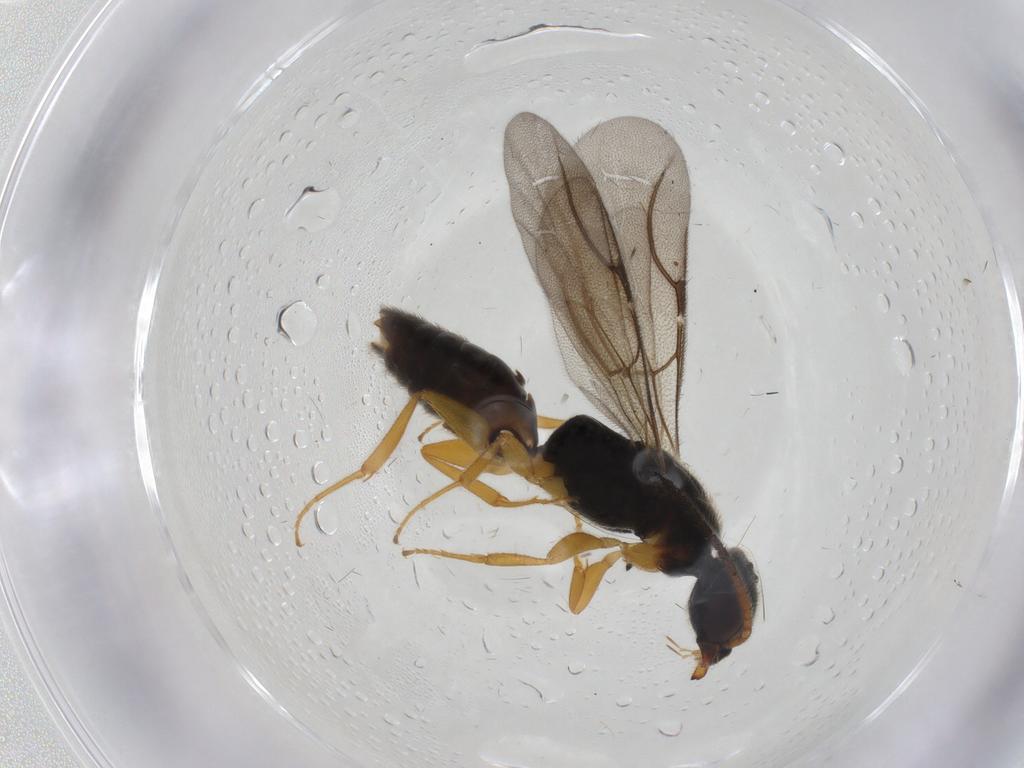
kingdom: Animalia
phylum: Arthropoda
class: Insecta
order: Hymenoptera
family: Bethylidae
